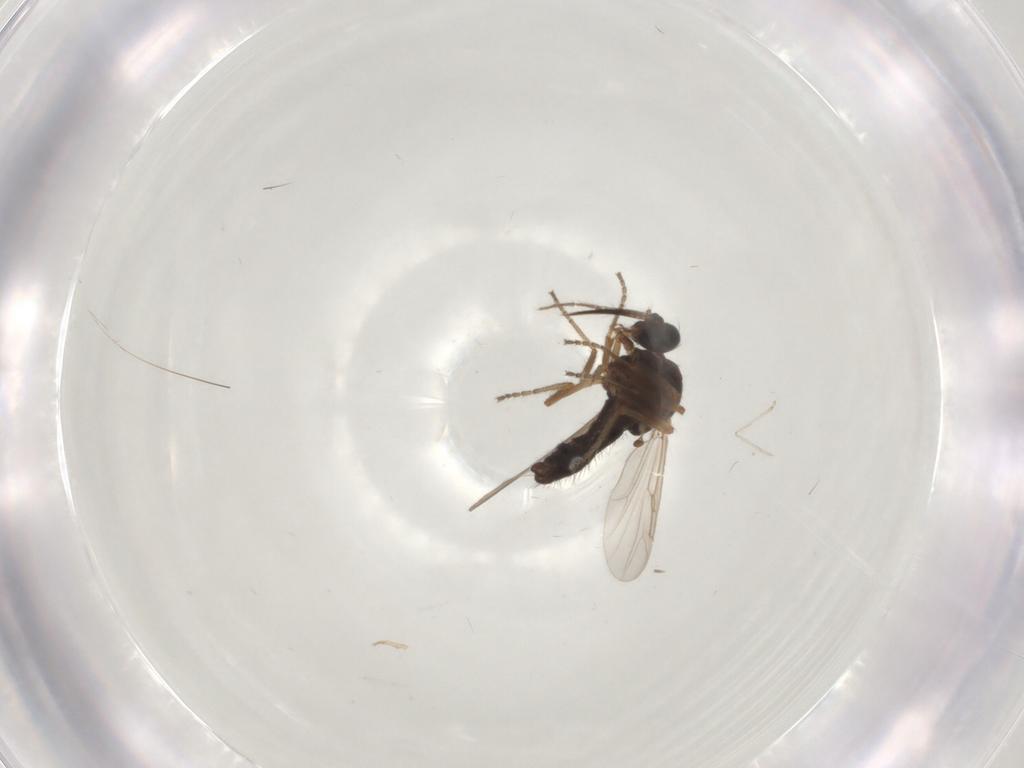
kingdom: Animalia
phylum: Arthropoda
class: Insecta
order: Diptera
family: Ceratopogonidae
